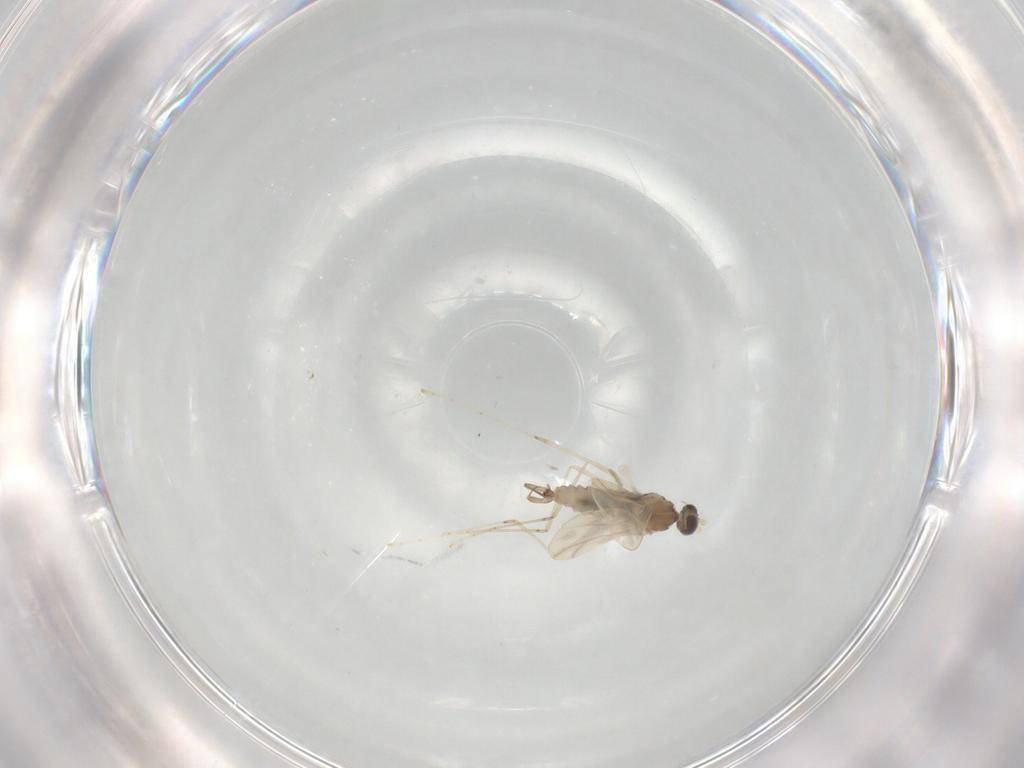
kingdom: Animalia
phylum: Arthropoda
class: Insecta
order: Diptera
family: Cecidomyiidae
